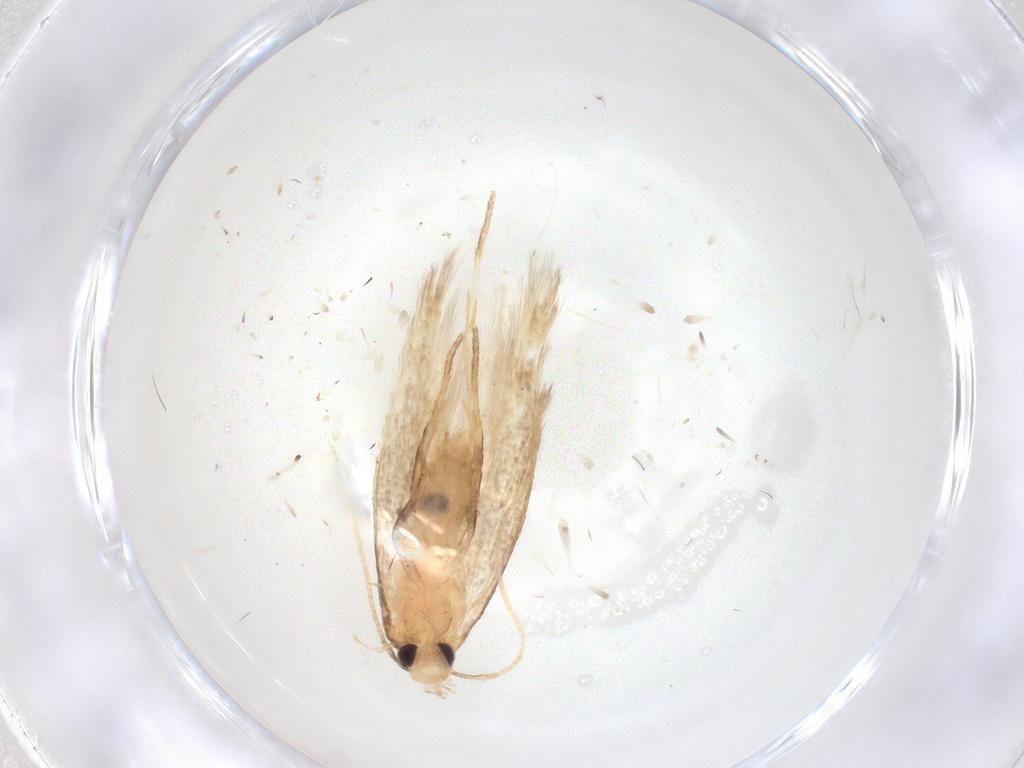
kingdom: Animalia
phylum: Arthropoda
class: Insecta
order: Lepidoptera
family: Cosmopterigidae
